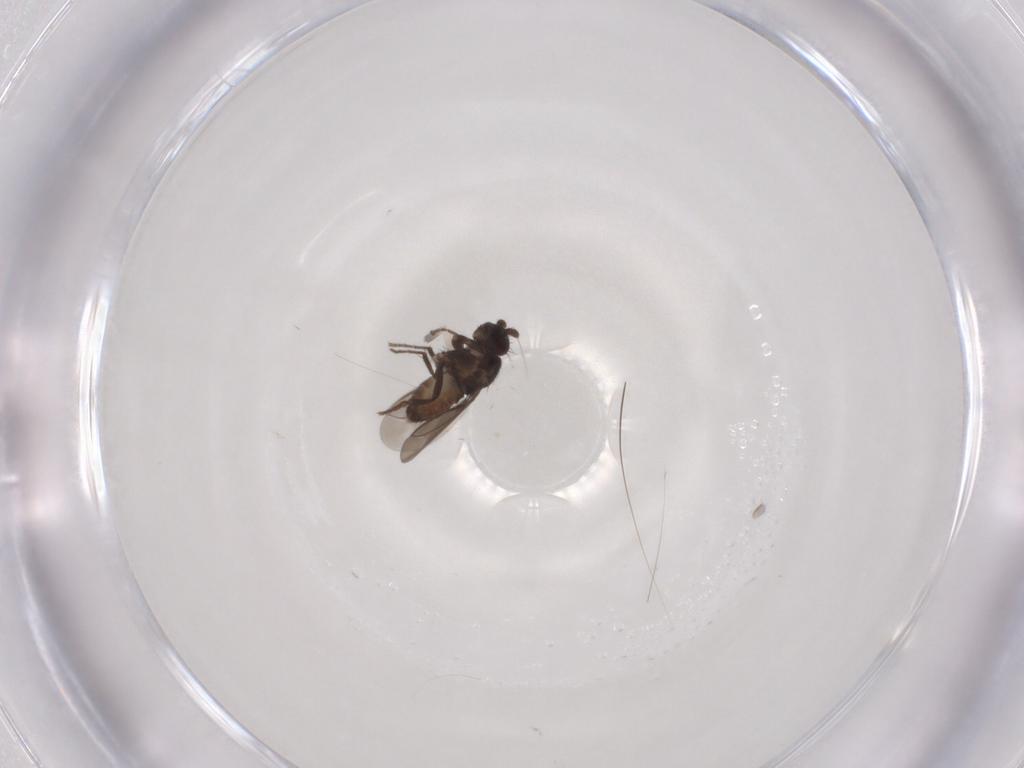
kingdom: Animalia
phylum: Arthropoda
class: Insecta
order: Diptera
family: Sphaeroceridae
